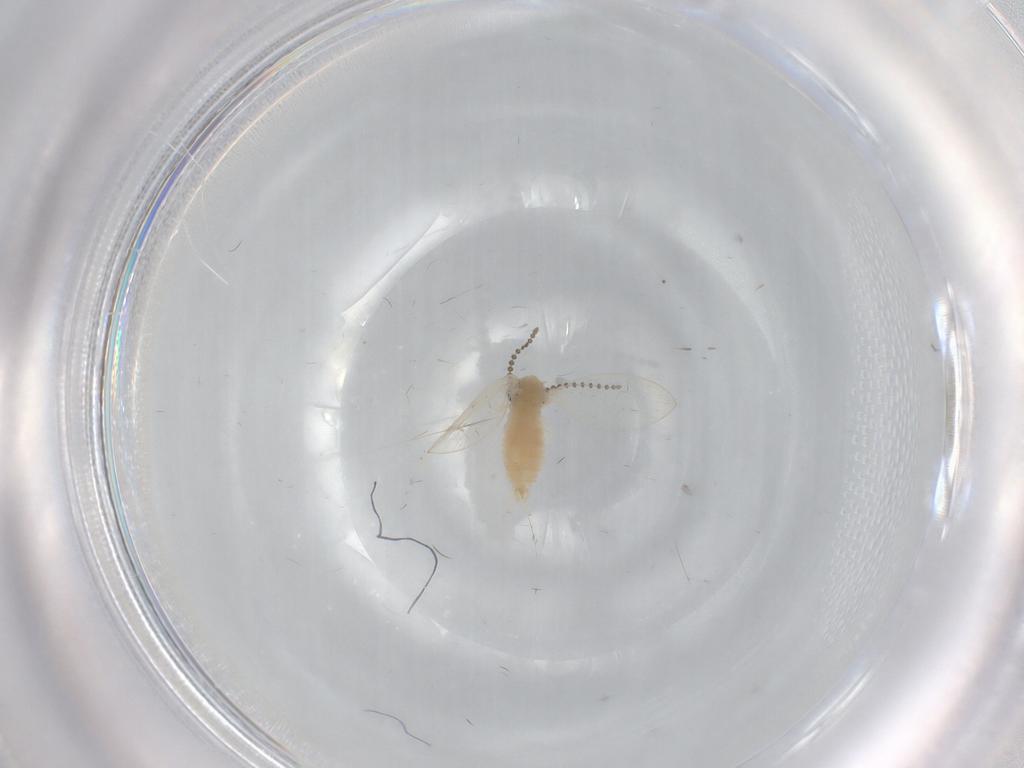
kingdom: Animalia
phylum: Arthropoda
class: Insecta
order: Diptera
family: Psychodidae
